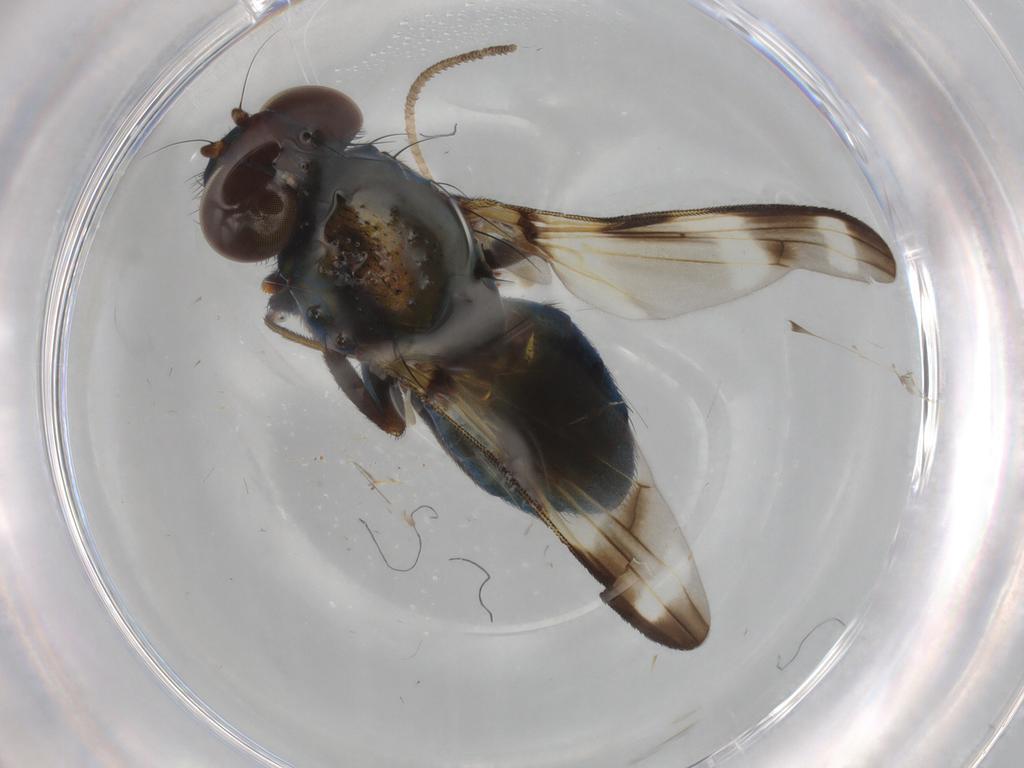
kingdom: Animalia
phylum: Arthropoda
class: Insecta
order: Diptera
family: Ulidiidae
